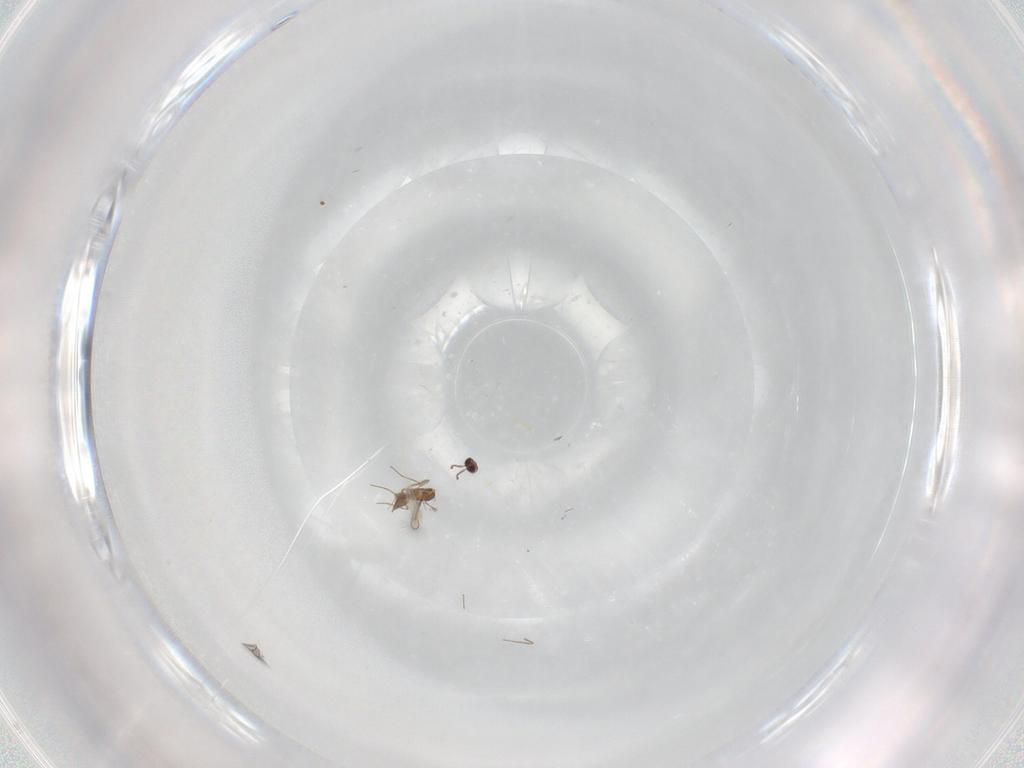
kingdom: Animalia
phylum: Arthropoda
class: Insecta
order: Hymenoptera
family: Mymaridae
